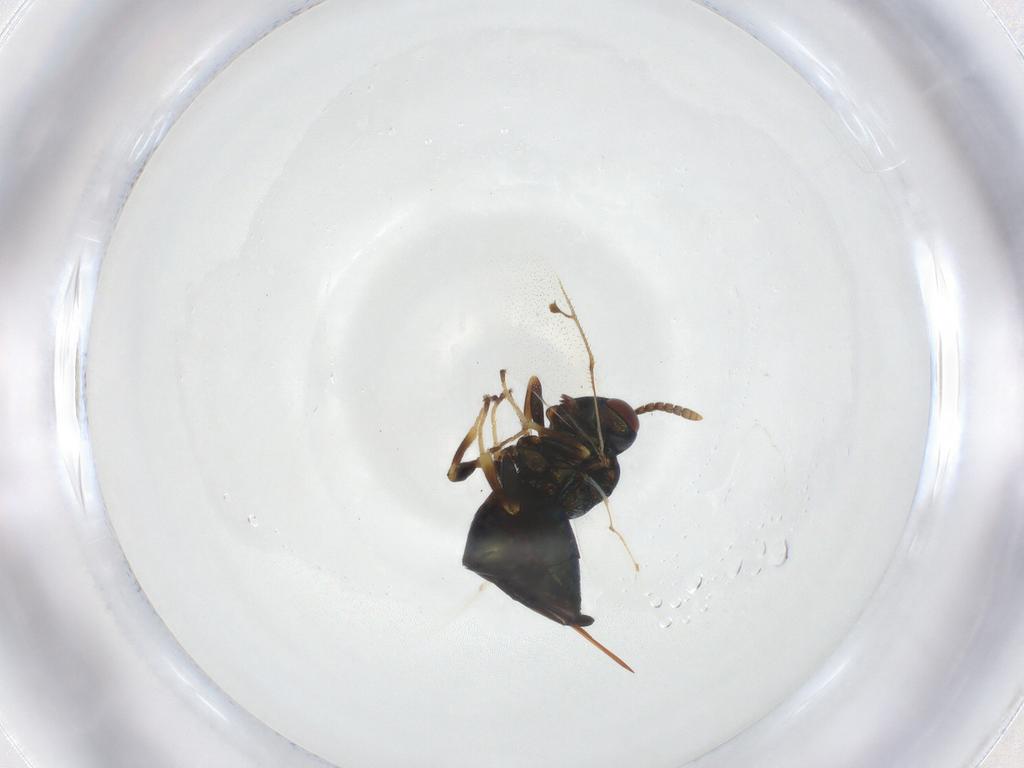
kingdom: Animalia
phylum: Arthropoda
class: Insecta
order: Hymenoptera
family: Pteromalidae
